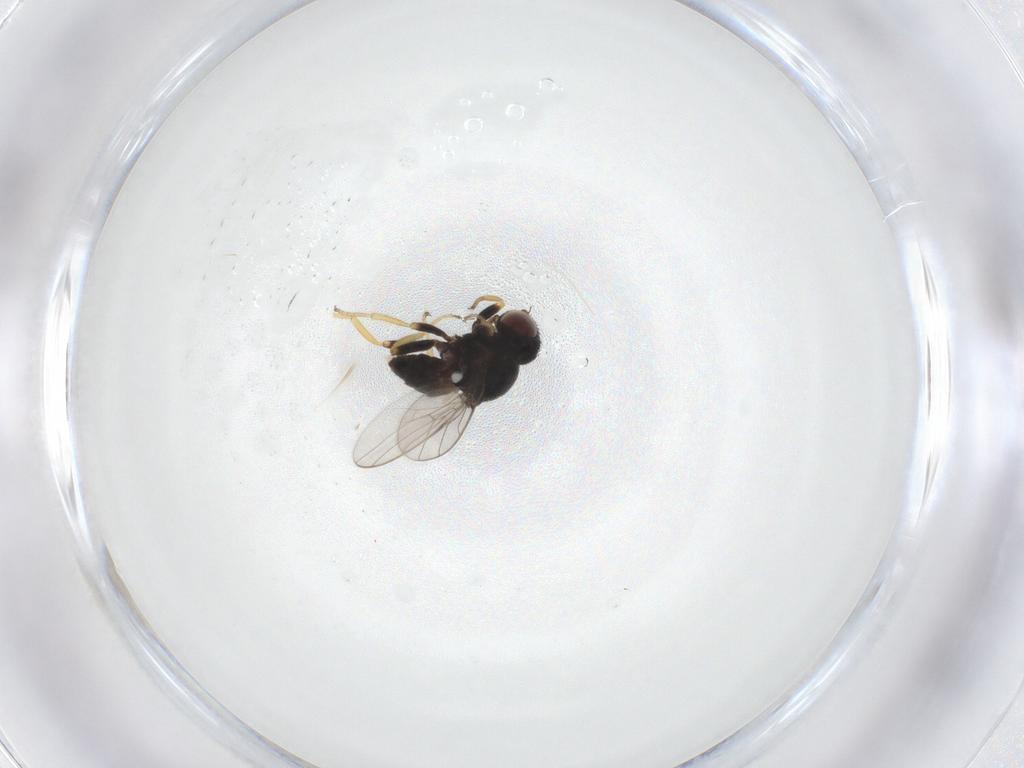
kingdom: Animalia
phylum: Arthropoda
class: Insecta
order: Diptera
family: Chloropidae
